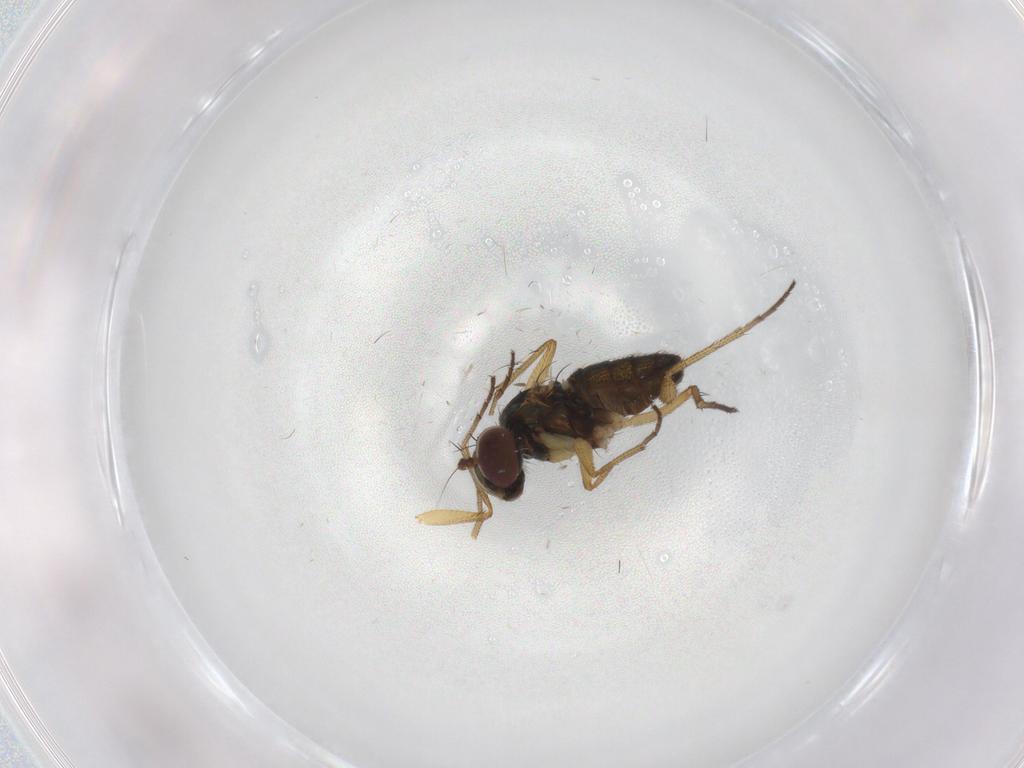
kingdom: Animalia
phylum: Arthropoda
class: Insecta
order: Diptera
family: Dolichopodidae
